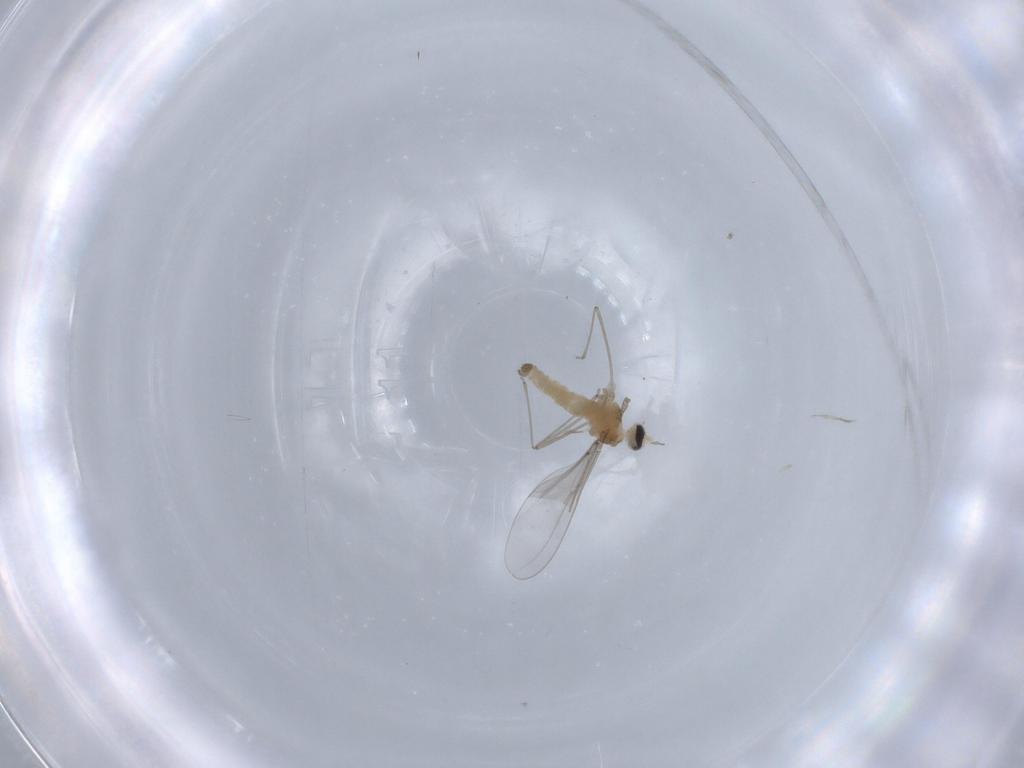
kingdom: Animalia
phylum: Arthropoda
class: Insecta
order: Diptera
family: Cecidomyiidae
